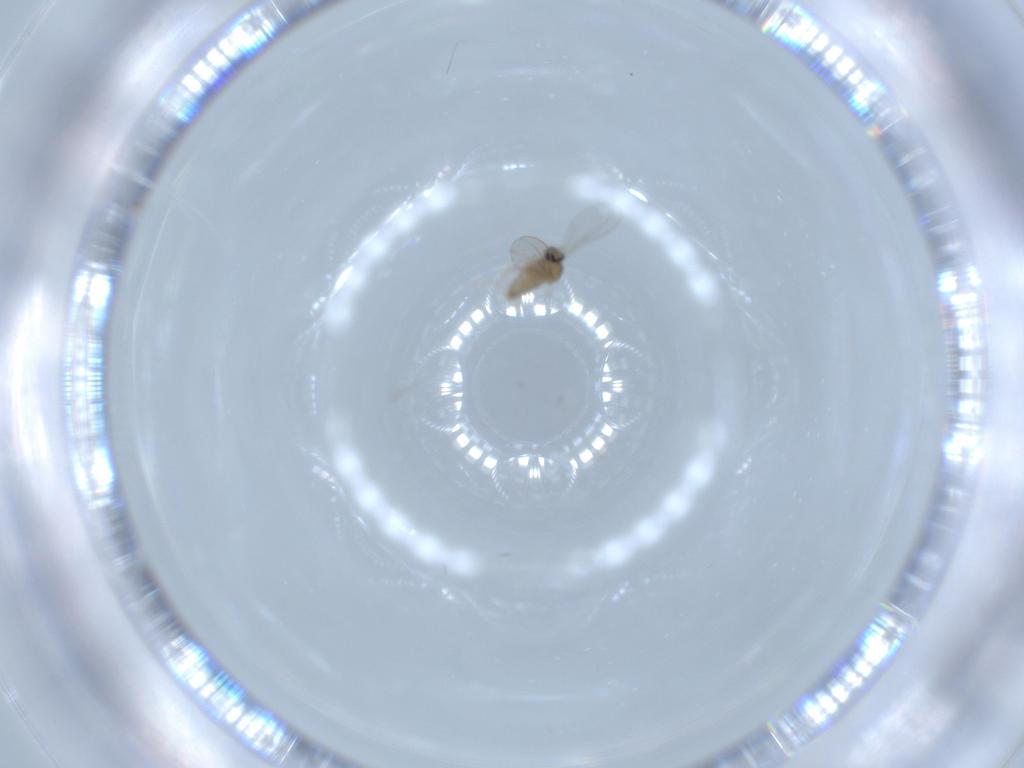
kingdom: Animalia
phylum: Arthropoda
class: Insecta
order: Diptera
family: Cecidomyiidae
